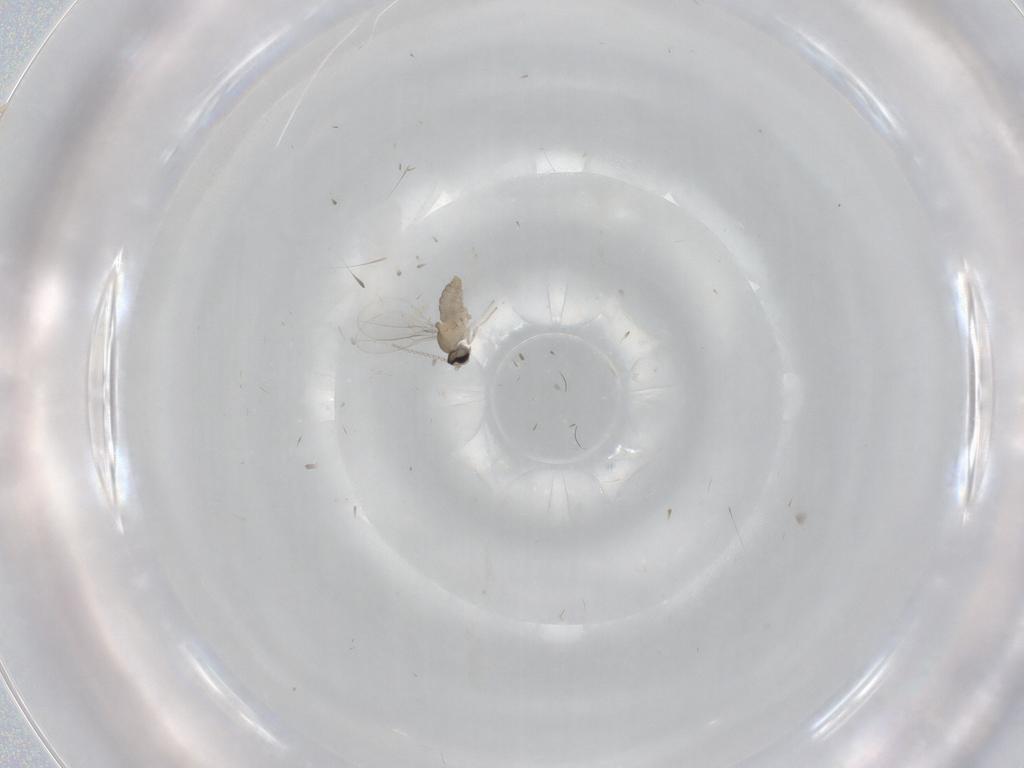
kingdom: Animalia
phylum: Arthropoda
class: Insecta
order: Diptera
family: Cecidomyiidae
